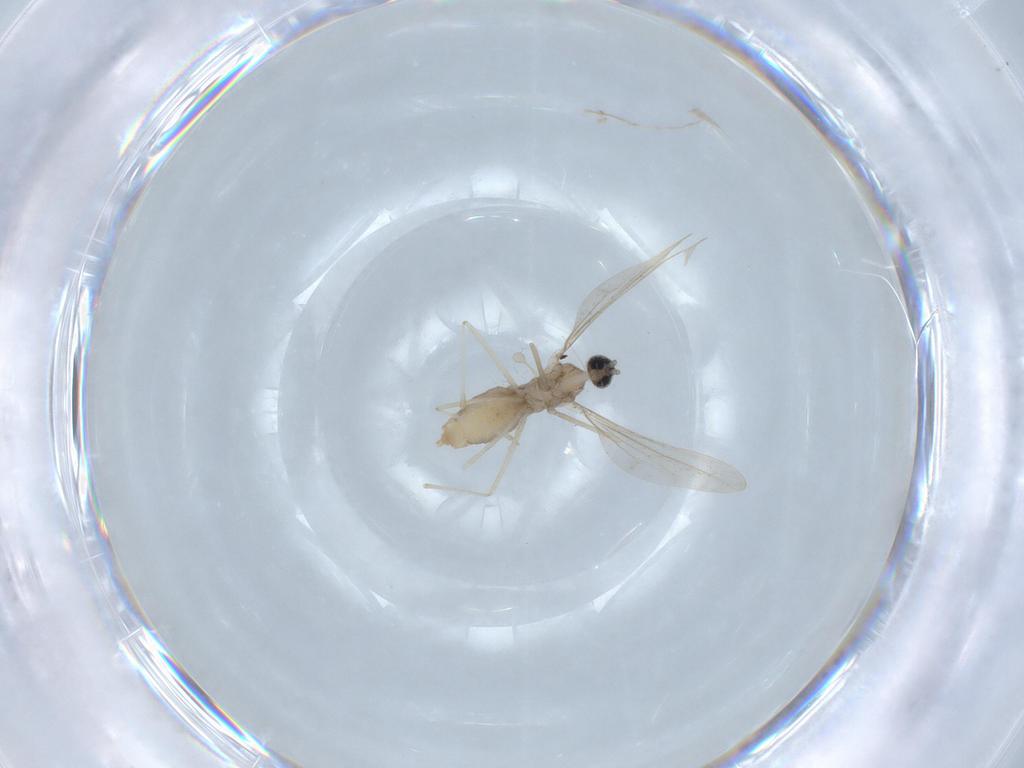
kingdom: Animalia
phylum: Arthropoda
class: Insecta
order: Diptera
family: Cecidomyiidae
